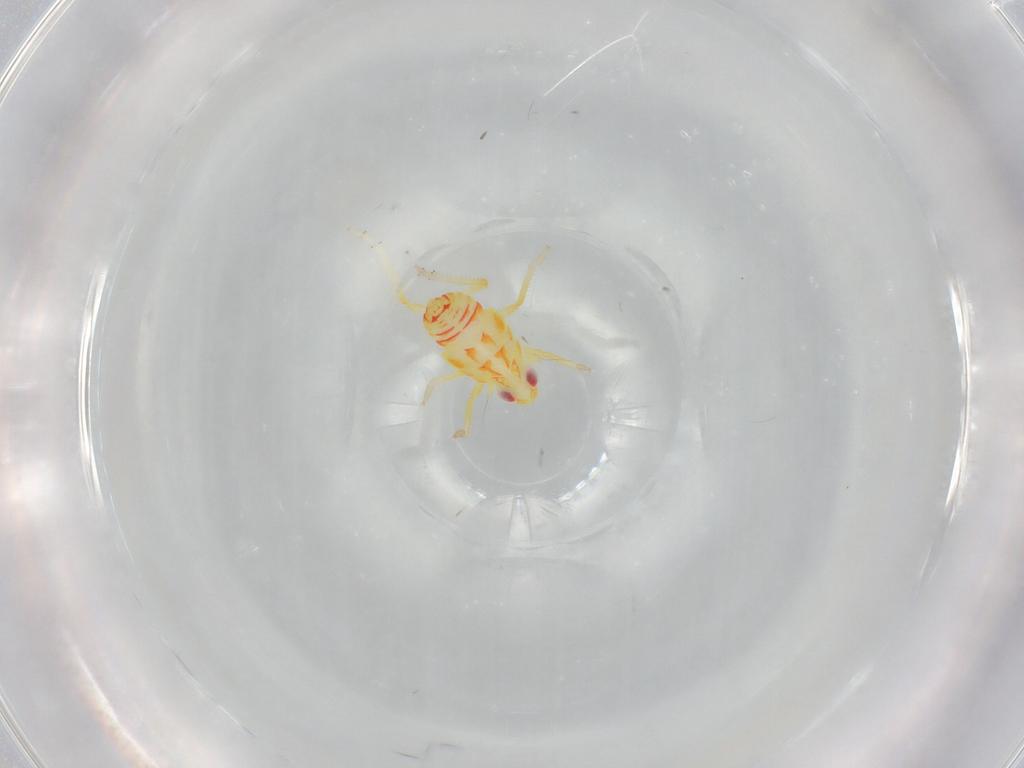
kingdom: Animalia
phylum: Arthropoda
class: Insecta
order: Hemiptera
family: Tropiduchidae
